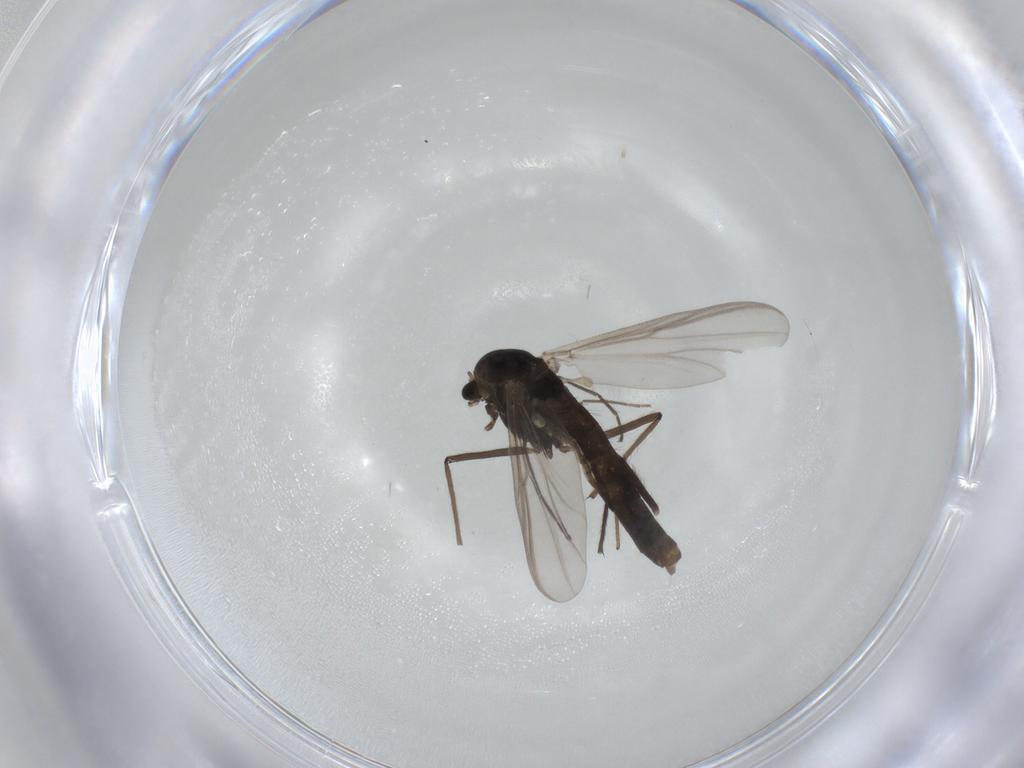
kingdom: Animalia
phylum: Arthropoda
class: Insecta
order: Diptera
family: Chironomidae
